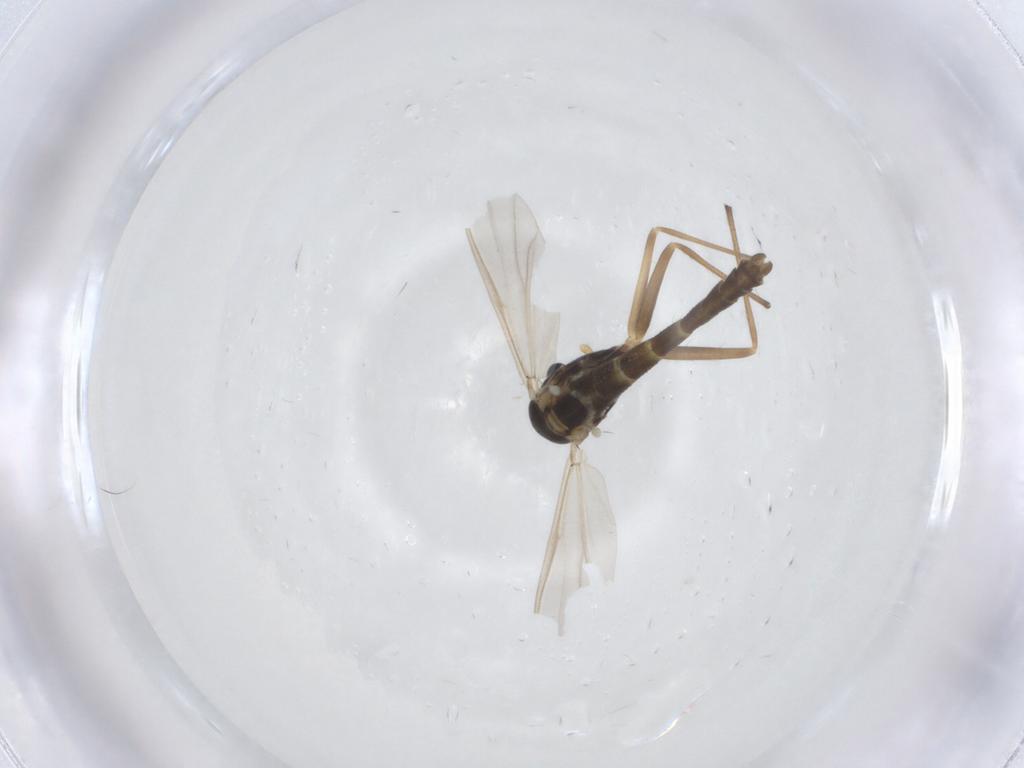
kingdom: Animalia
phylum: Arthropoda
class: Insecta
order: Diptera
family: Chironomidae
